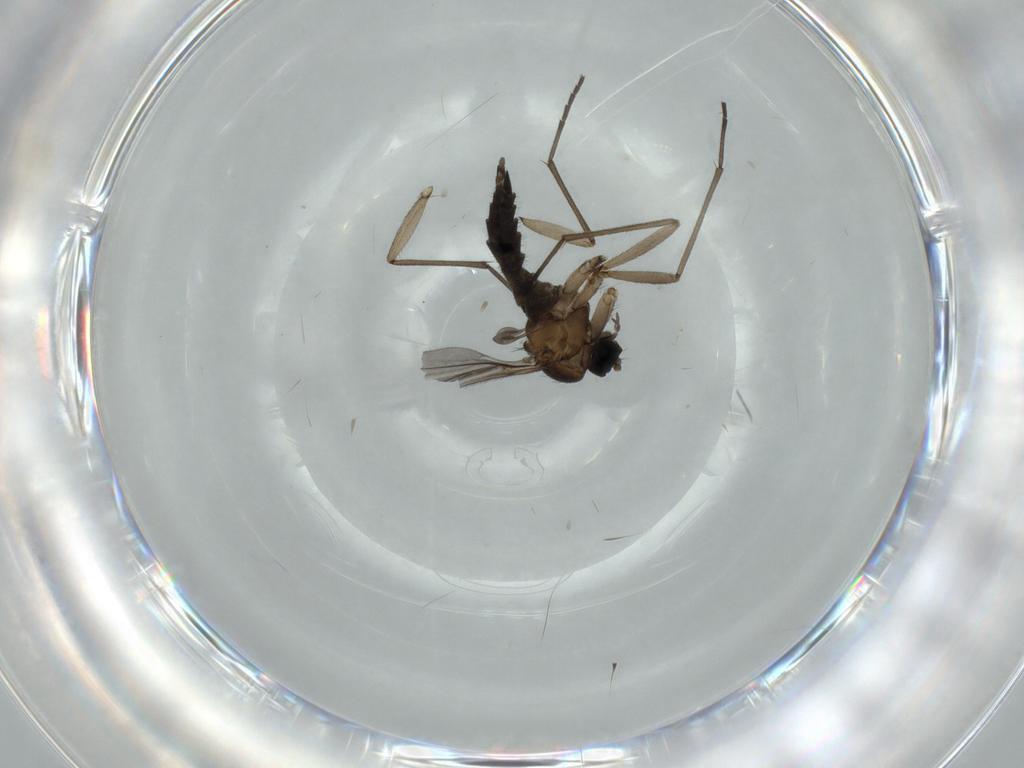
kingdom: Animalia
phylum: Arthropoda
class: Insecta
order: Diptera
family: Sciaridae
